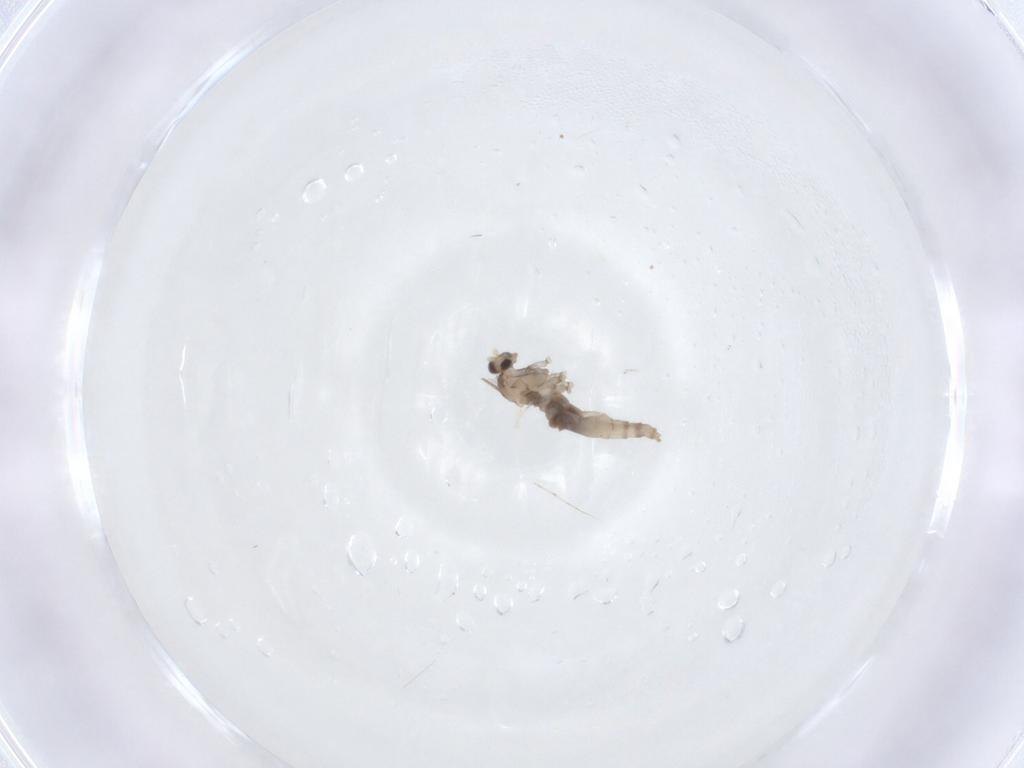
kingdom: Animalia
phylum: Arthropoda
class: Insecta
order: Diptera
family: Cecidomyiidae
